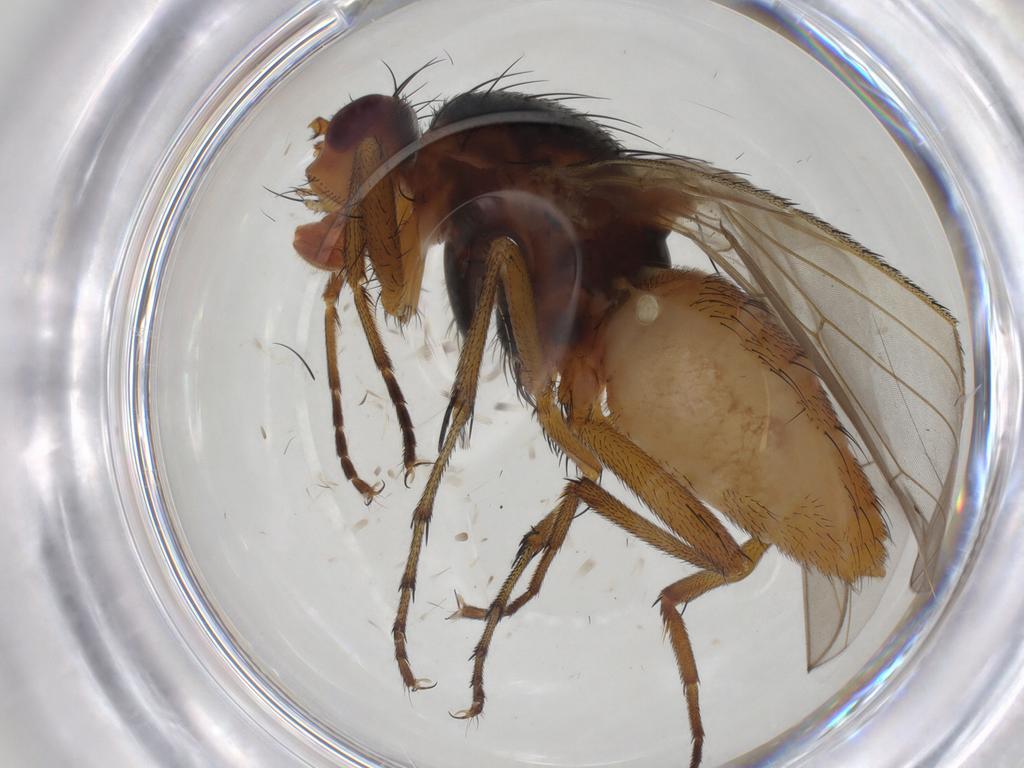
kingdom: Animalia
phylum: Arthropoda
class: Insecta
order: Diptera
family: Heleomyzidae
